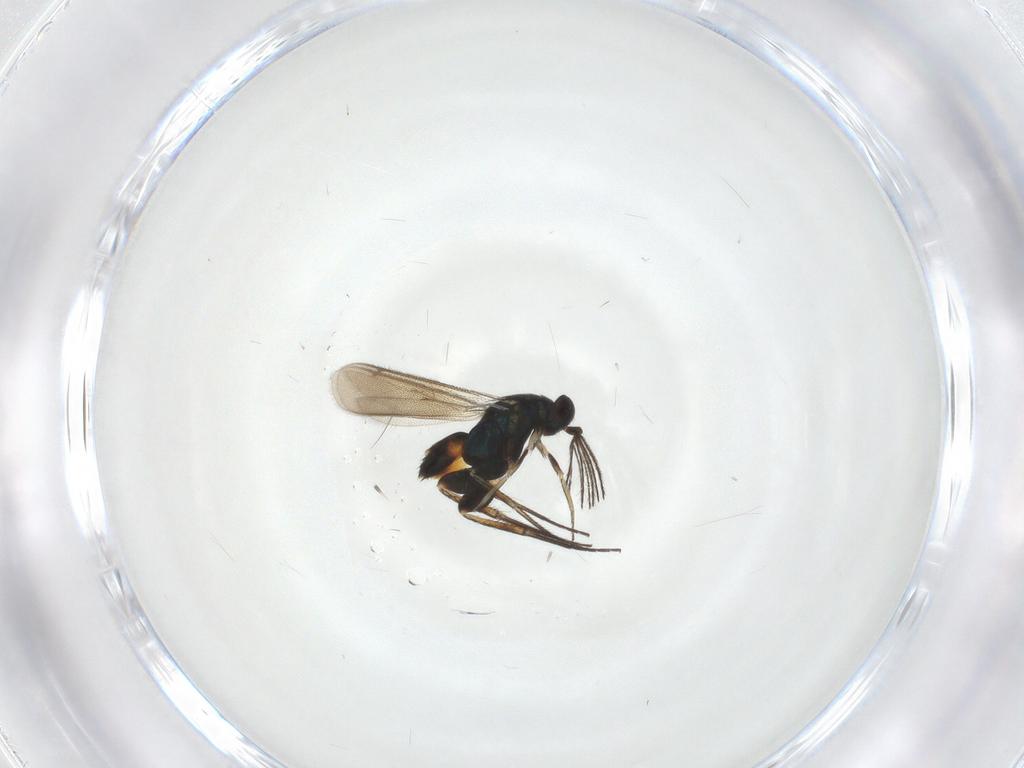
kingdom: Animalia
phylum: Arthropoda
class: Insecta
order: Hymenoptera
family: Eulophidae
